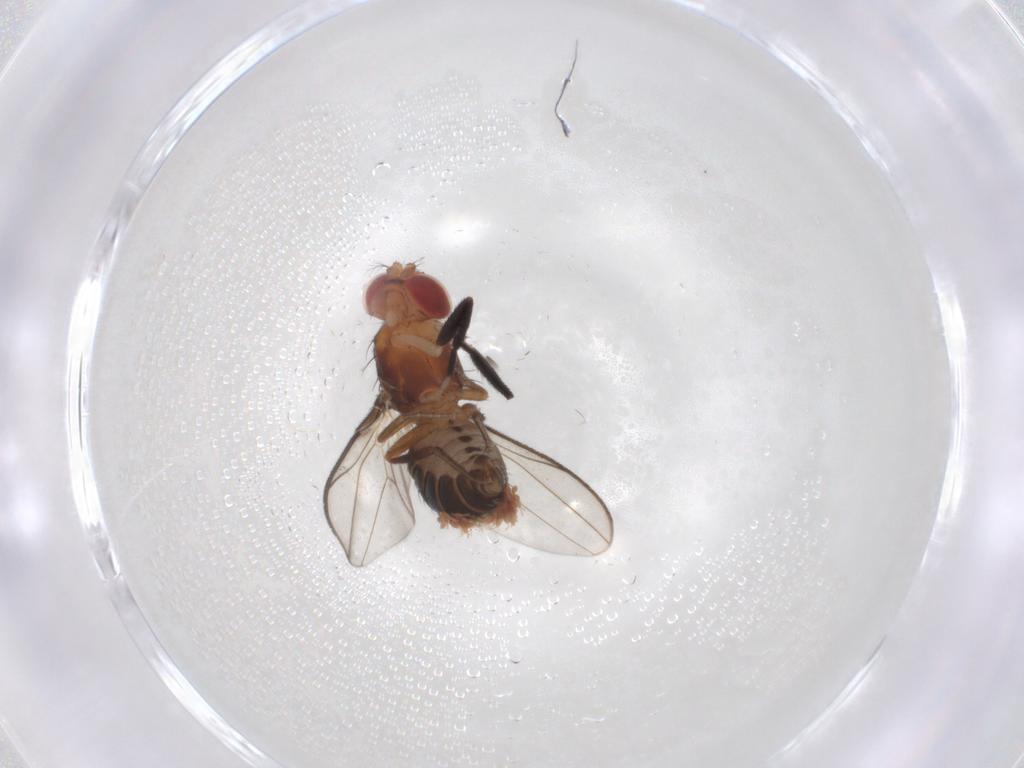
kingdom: Animalia
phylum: Arthropoda
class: Insecta
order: Diptera
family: Drosophilidae
